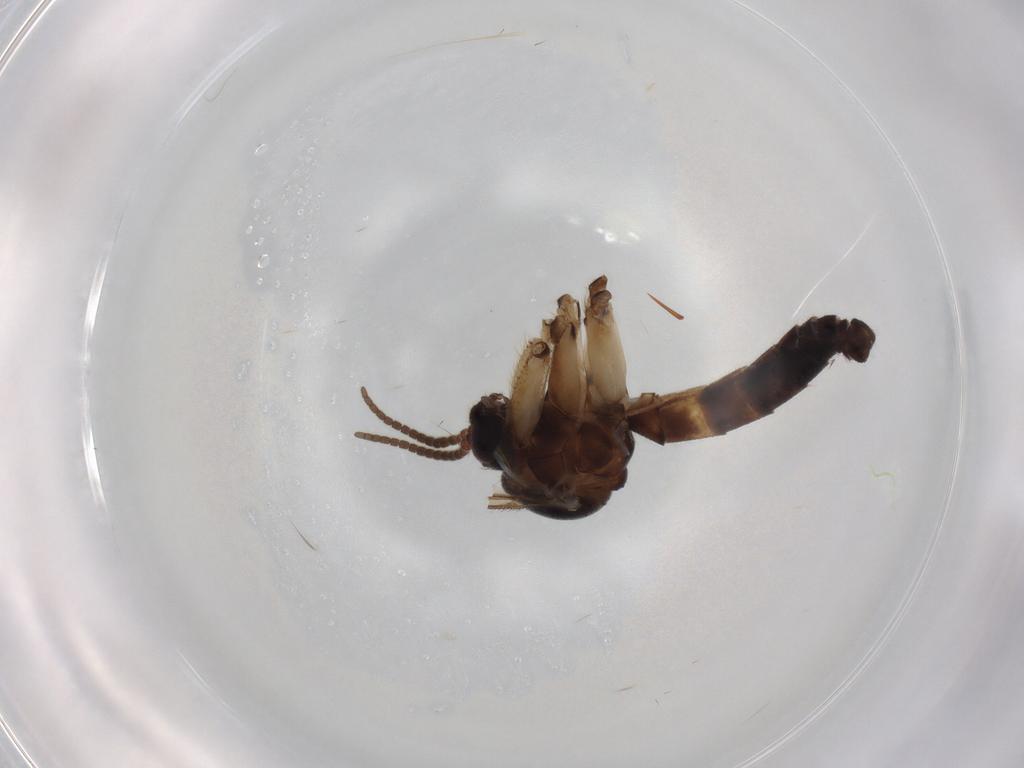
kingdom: Animalia
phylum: Arthropoda
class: Insecta
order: Diptera
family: Mycetophilidae
